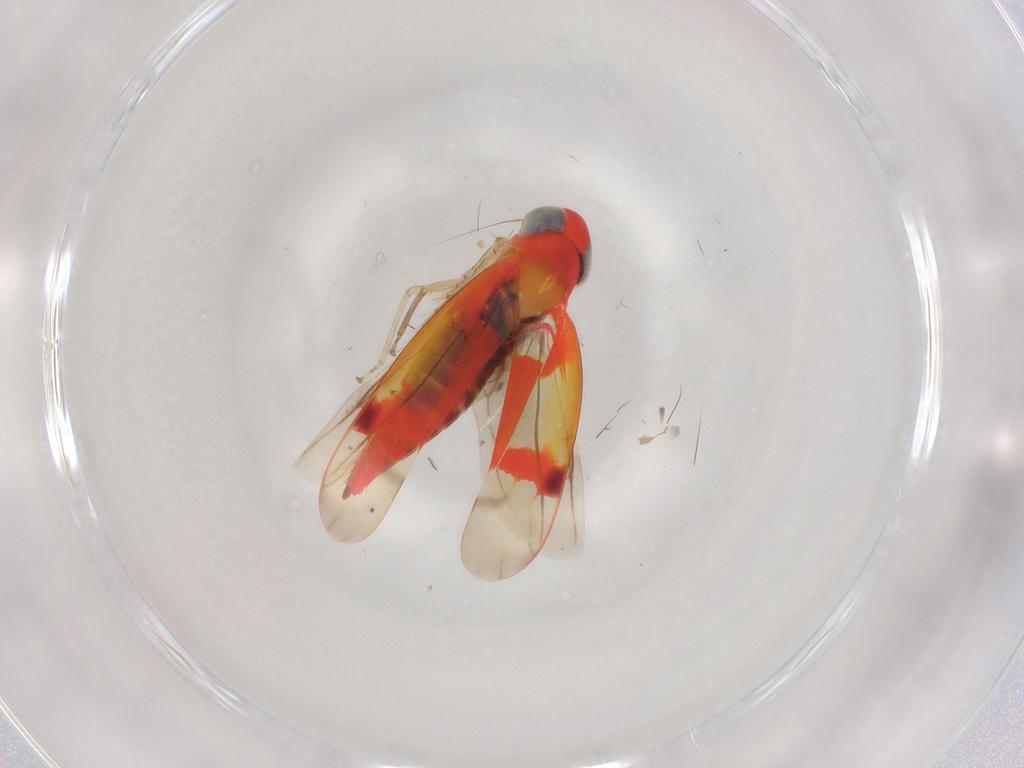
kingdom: Animalia
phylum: Arthropoda
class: Insecta
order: Hemiptera
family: Cicadellidae
